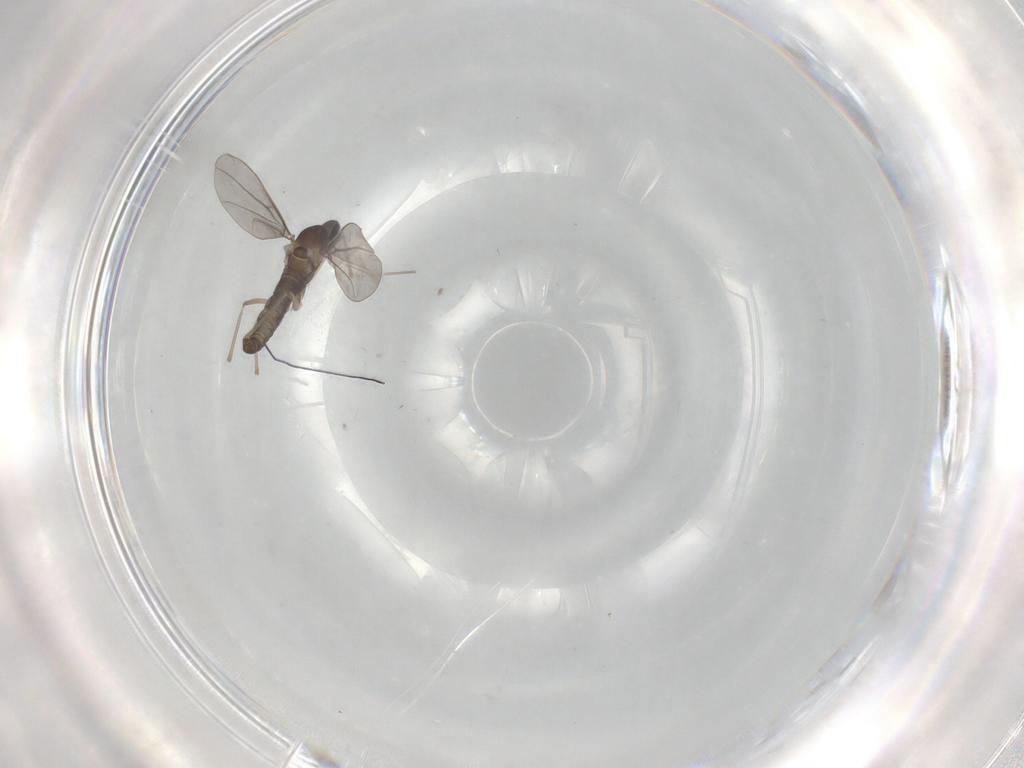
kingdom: Animalia
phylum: Arthropoda
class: Insecta
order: Diptera
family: Cecidomyiidae
